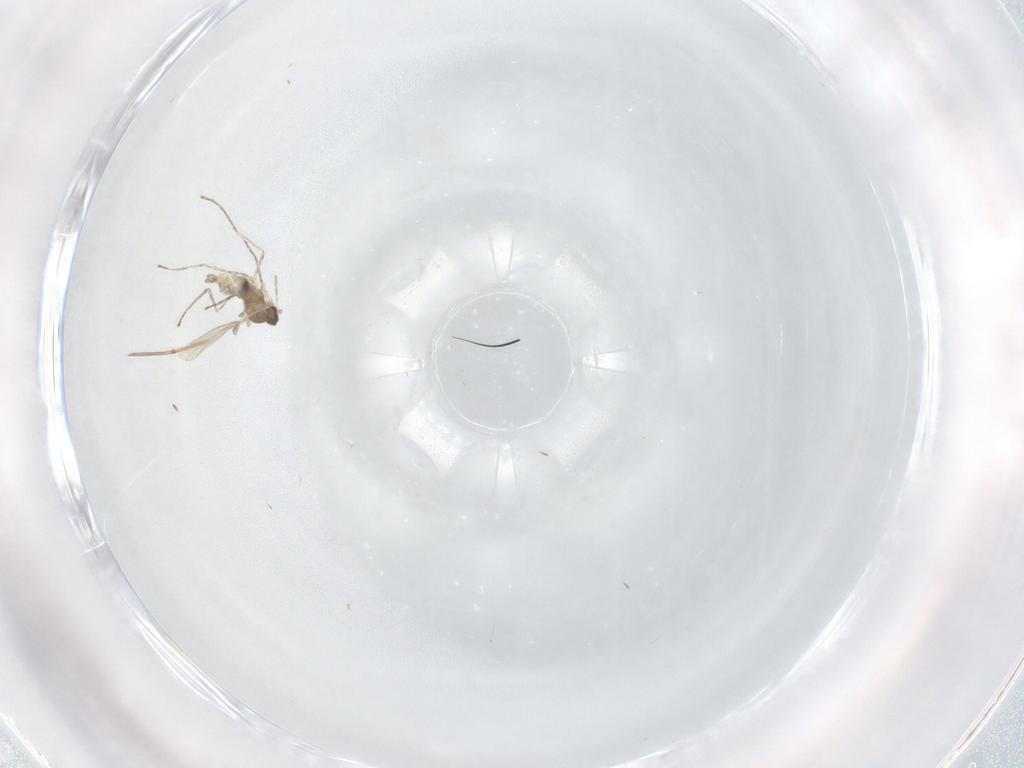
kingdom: Animalia
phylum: Arthropoda
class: Insecta
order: Diptera
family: Cecidomyiidae
